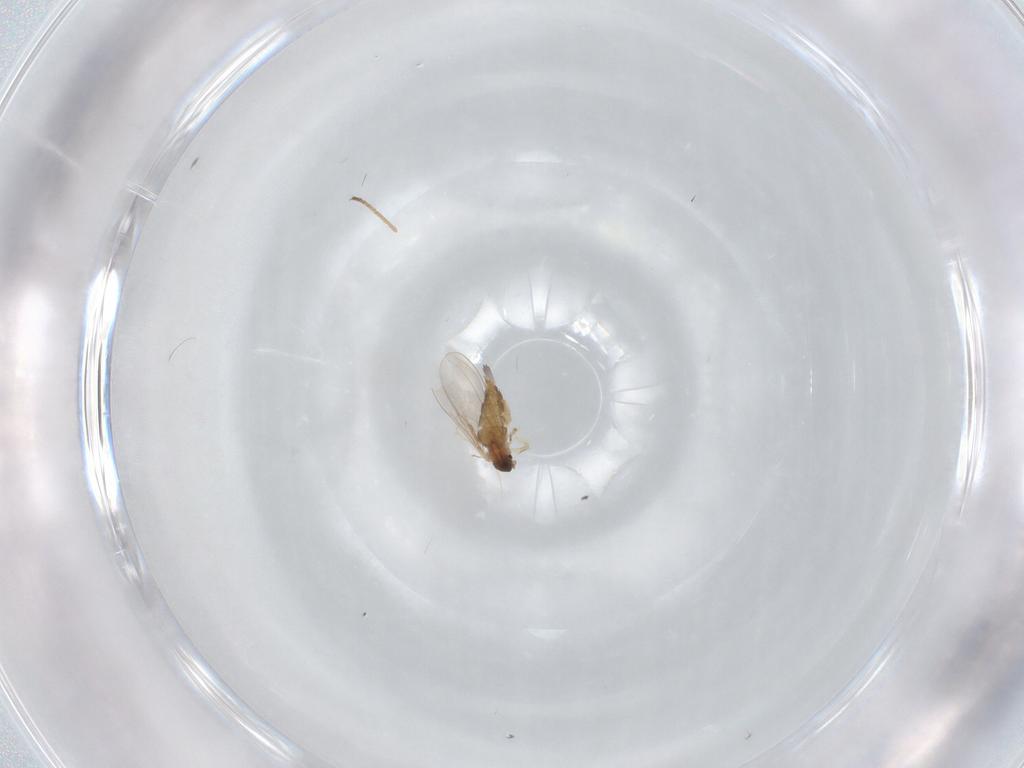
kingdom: Animalia
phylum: Arthropoda
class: Insecta
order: Diptera
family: Cecidomyiidae
